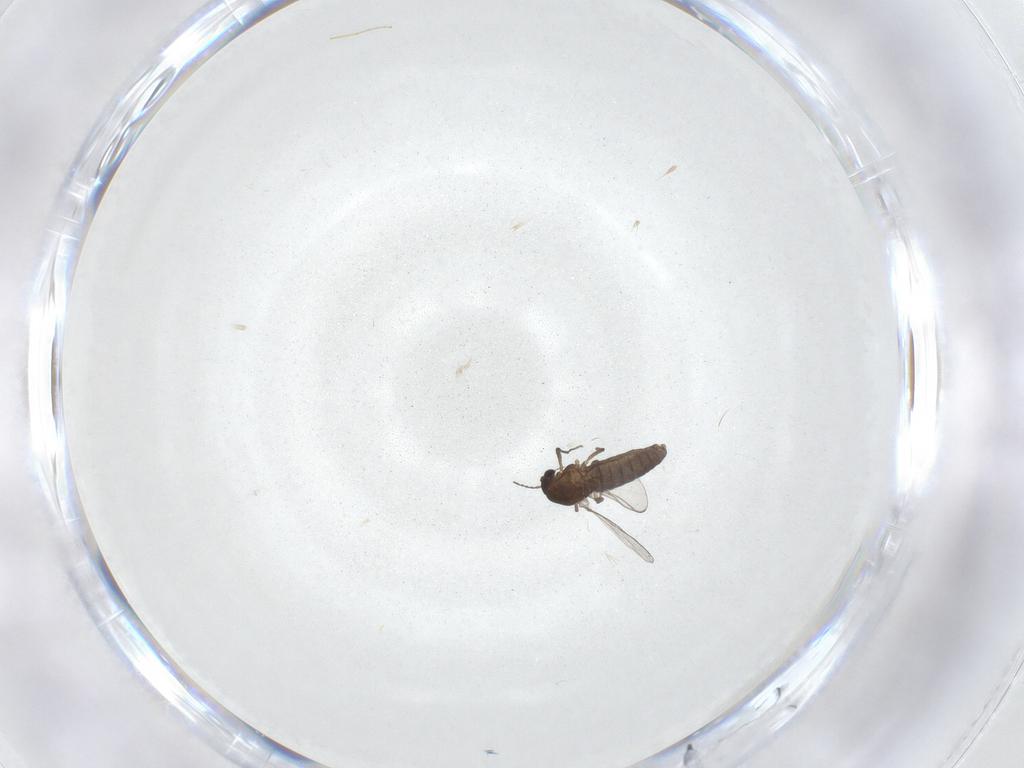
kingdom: Animalia
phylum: Arthropoda
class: Insecta
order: Diptera
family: Chironomidae
